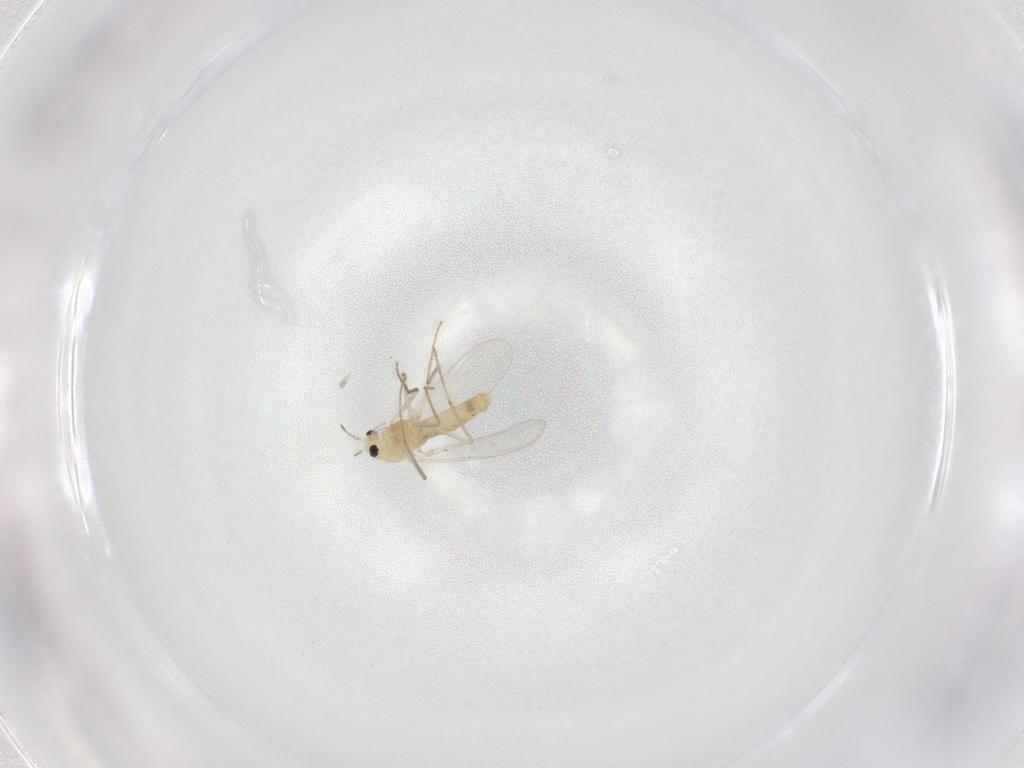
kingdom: Animalia
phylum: Arthropoda
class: Insecta
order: Diptera
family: Chironomidae
